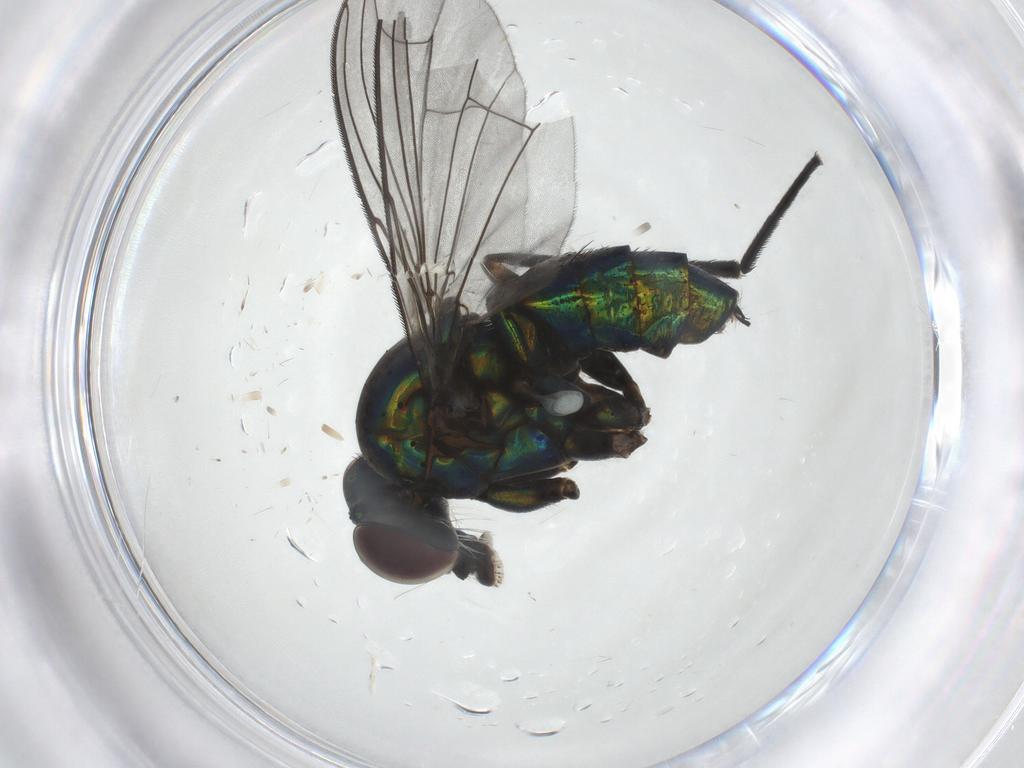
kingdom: Animalia
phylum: Arthropoda
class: Insecta
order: Diptera
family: Dolichopodidae
